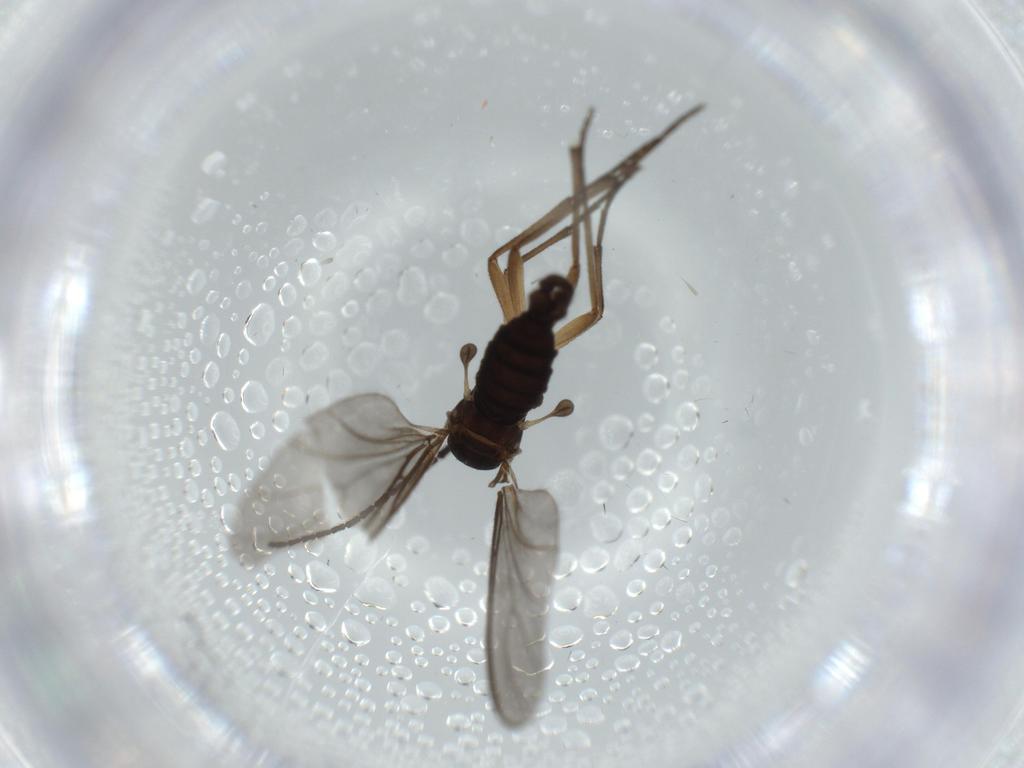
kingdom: Animalia
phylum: Arthropoda
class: Insecta
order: Diptera
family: Sciaridae
